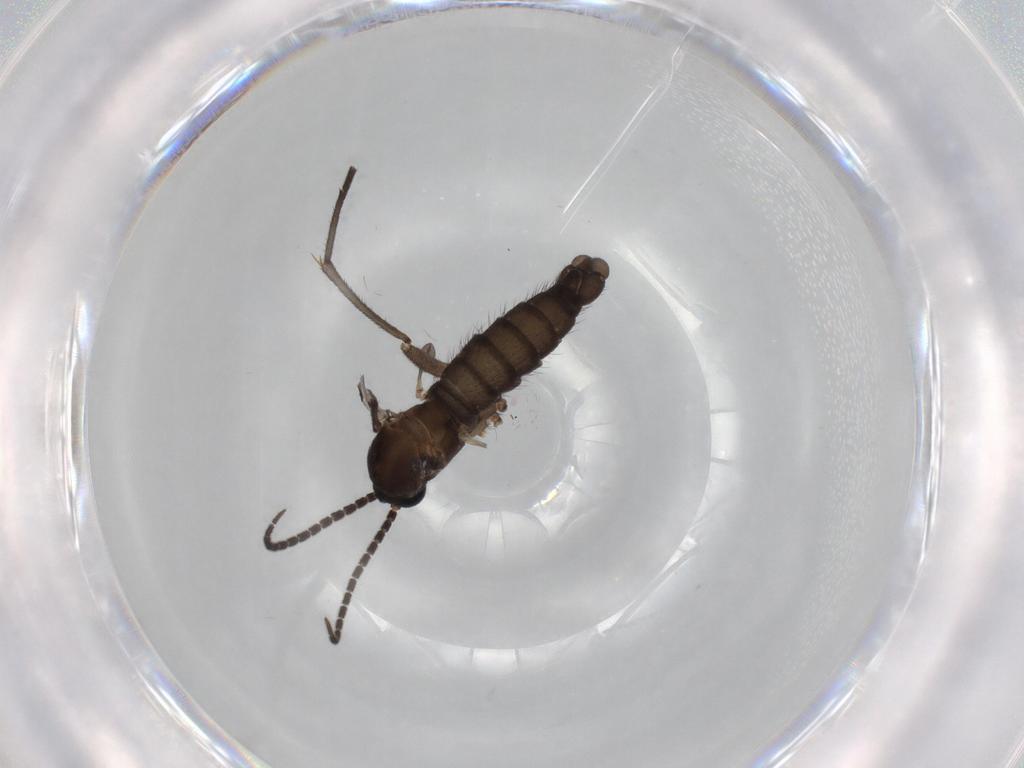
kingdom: Animalia
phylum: Arthropoda
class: Insecta
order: Diptera
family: Sciaridae
